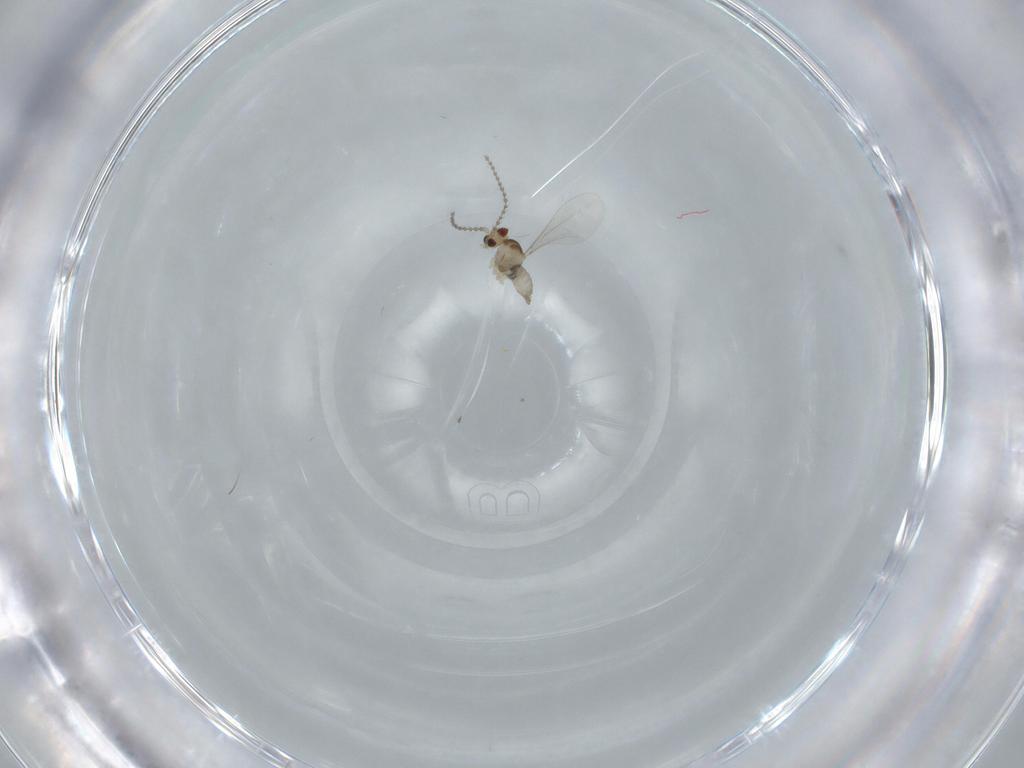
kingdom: Animalia
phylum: Arthropoda
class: Insecta
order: Diptera
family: Cecidomyiidae
